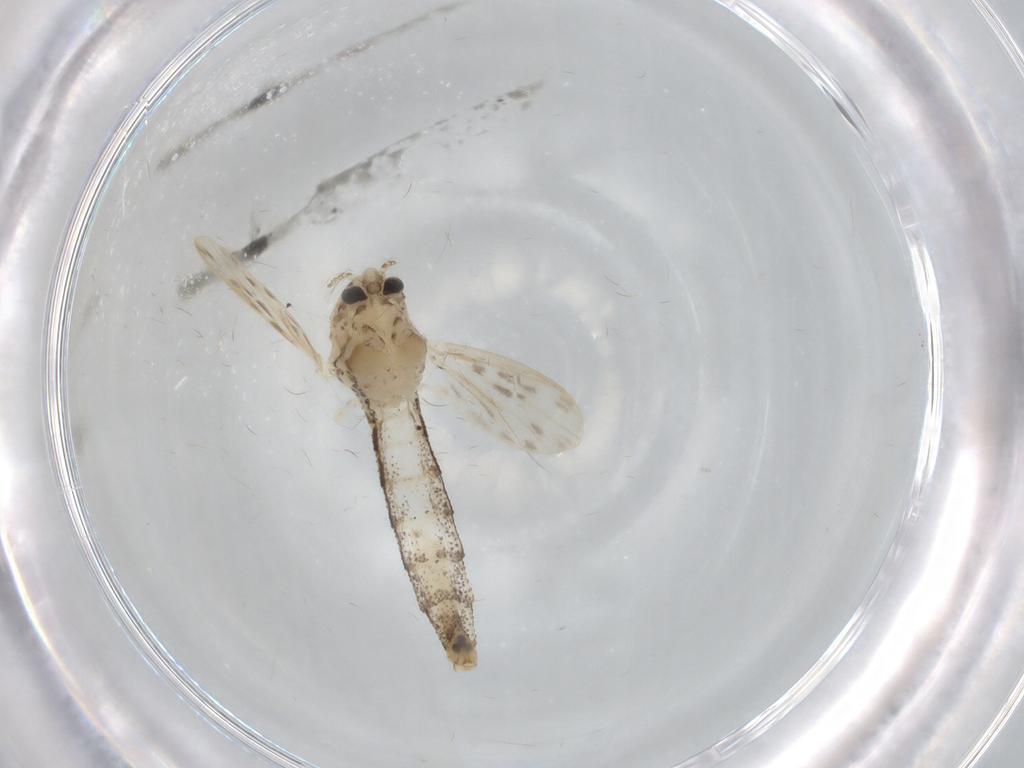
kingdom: Animalia
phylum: Arthropoda
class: Insecta
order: Diptera
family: Chaoboridae
